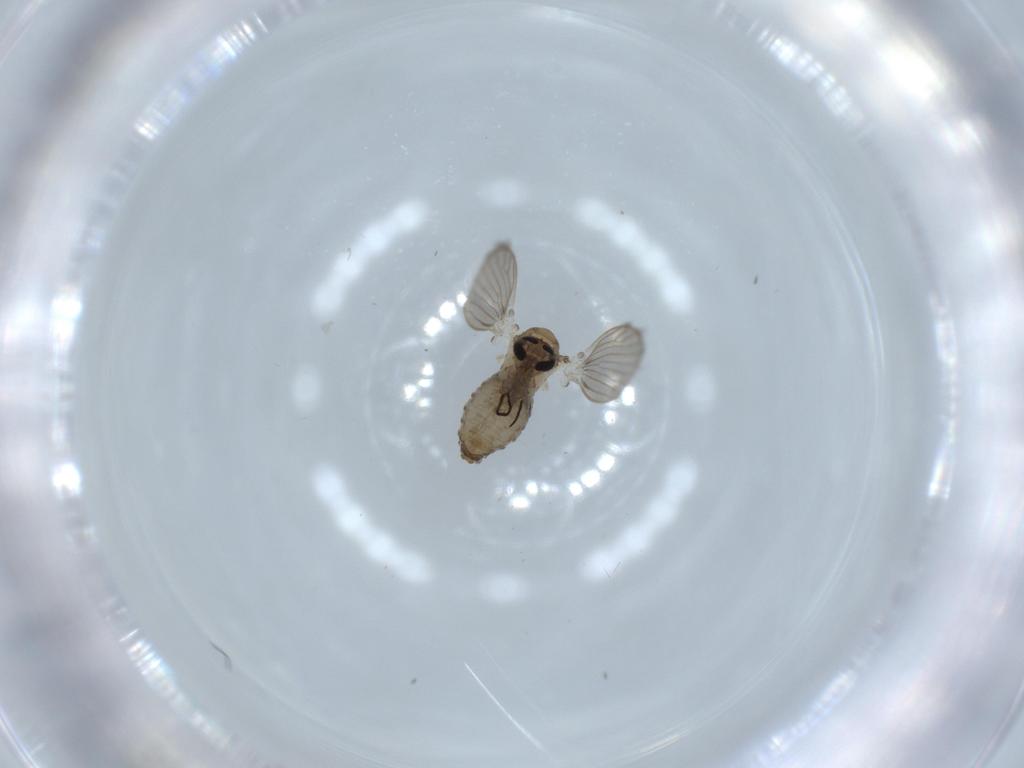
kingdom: Animalia
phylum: Arthropoda
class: Insecta
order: Diptera
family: Psychodidae
